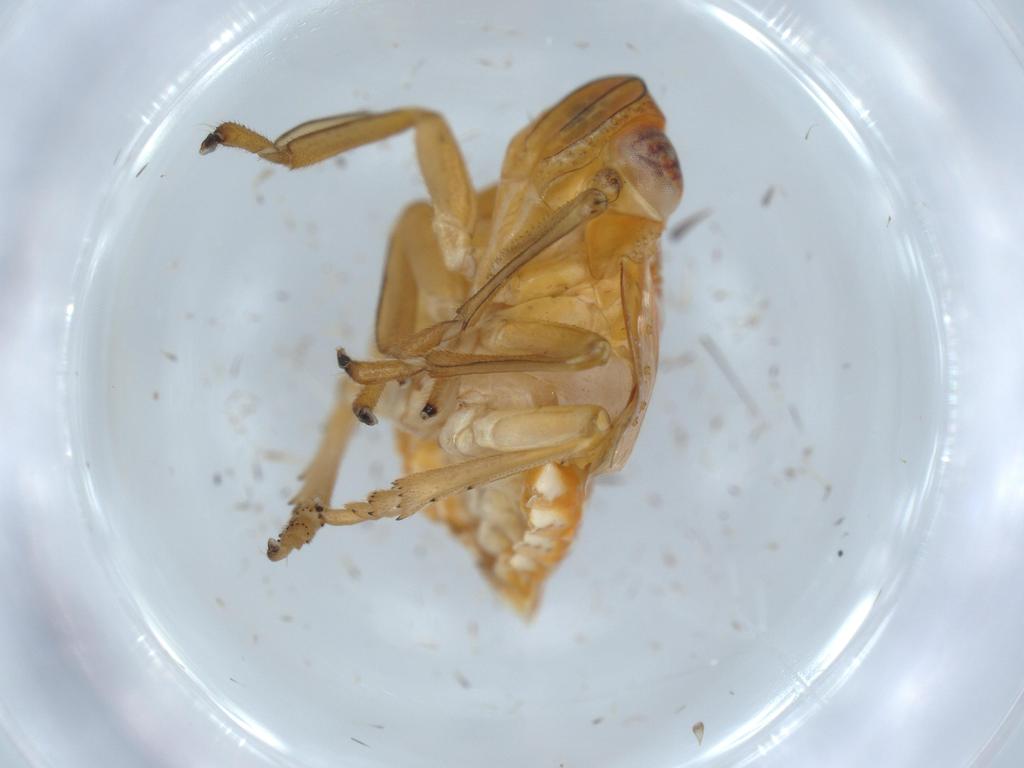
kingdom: Animalia
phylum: Arthropoda
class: Insecta
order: Hemiptera
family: Issidae
